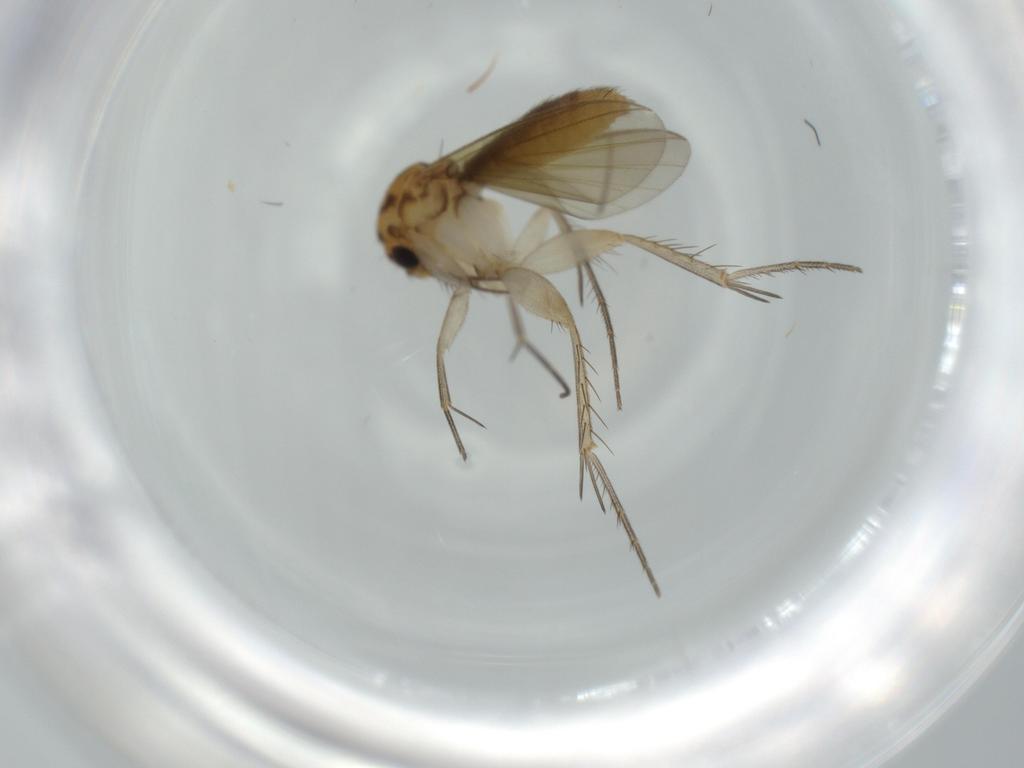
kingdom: Animalia
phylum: Arthropoda
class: Insecta
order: Diptera
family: Mycetophilidae
